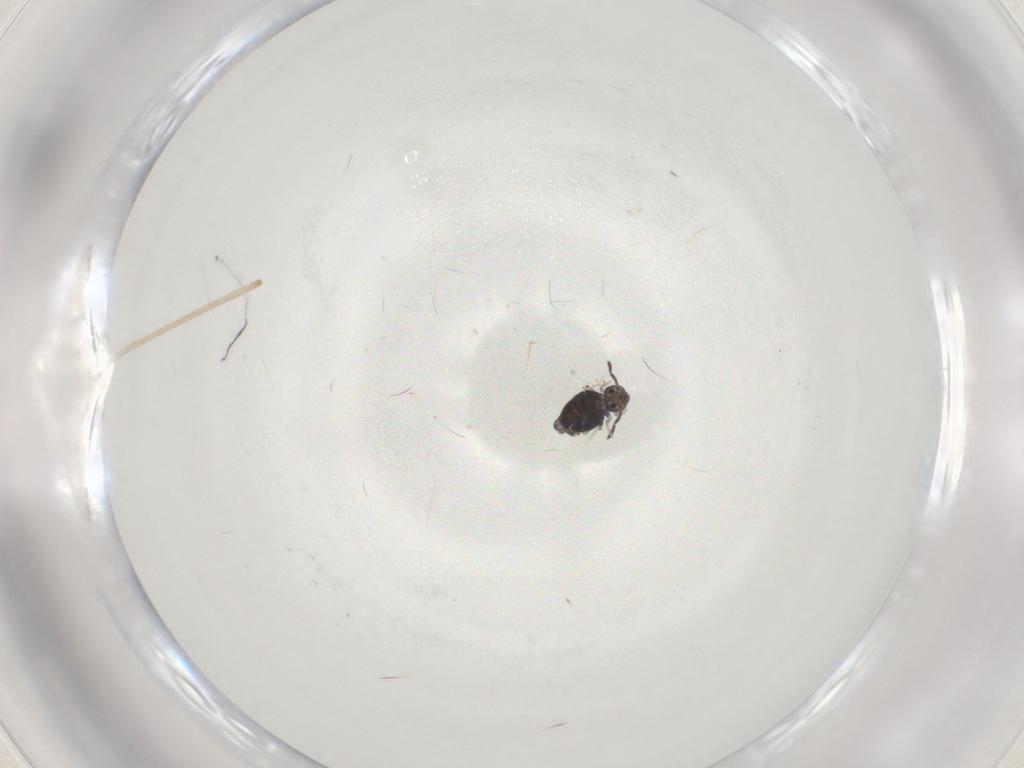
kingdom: Animalia
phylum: Arthropoda
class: Collembola
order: Symphypleona
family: Katiannidae
